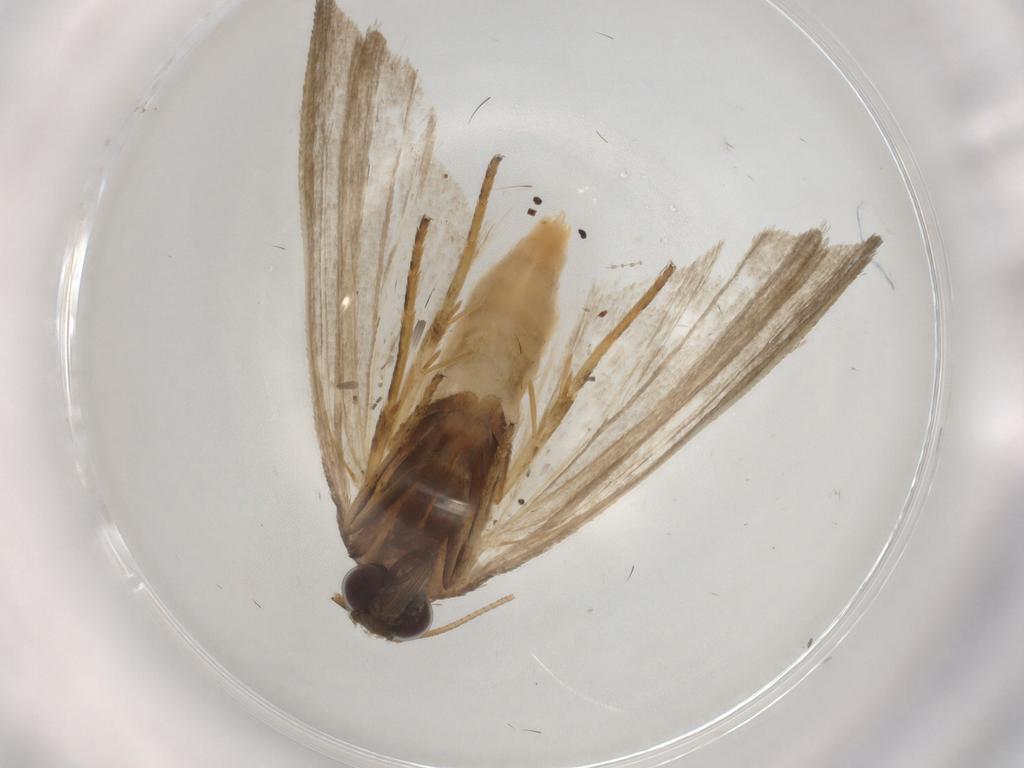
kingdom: Animalia
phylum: Arthropoda
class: Insecta
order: Lepidoptera
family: Noctuidae
